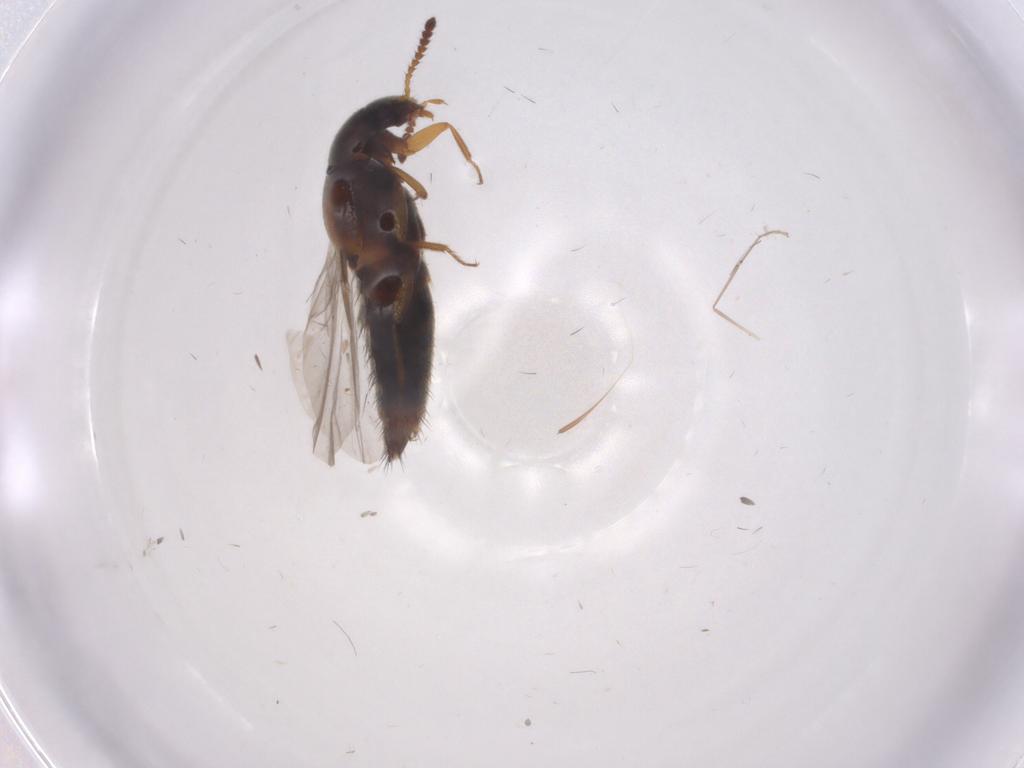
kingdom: Animalia
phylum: Arthropoda
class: Insecta
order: Coleoptera
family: Staphylinidae
